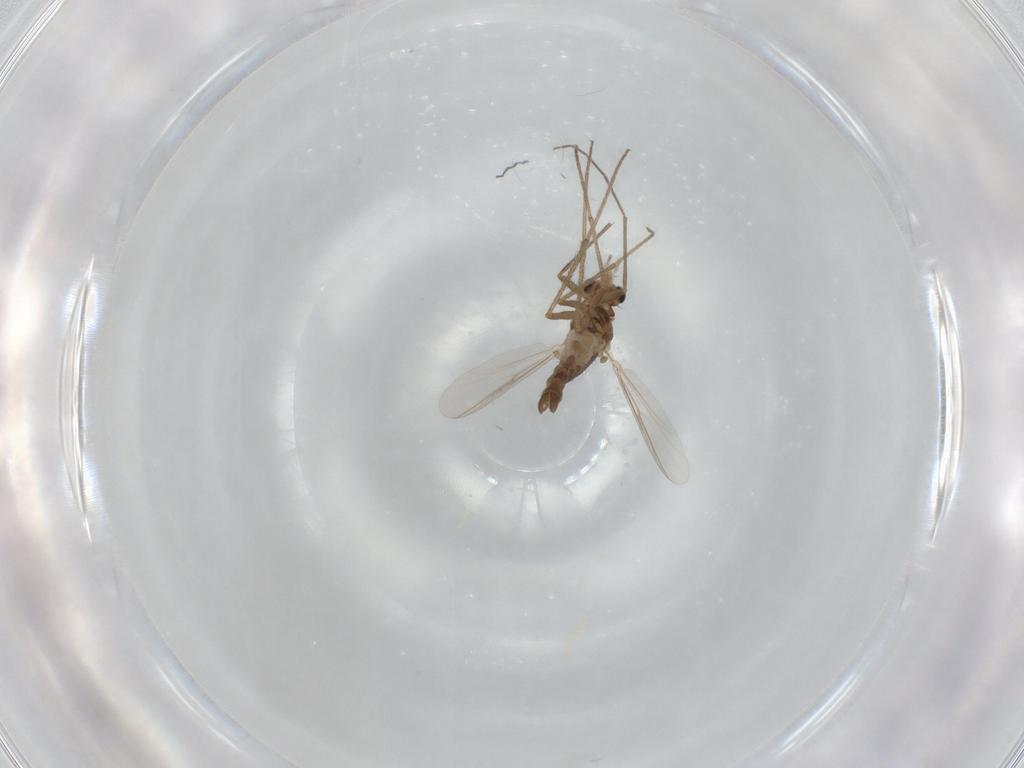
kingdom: Animalia
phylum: Arthropoda
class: Insecta
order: Diptera
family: Chironomidae
